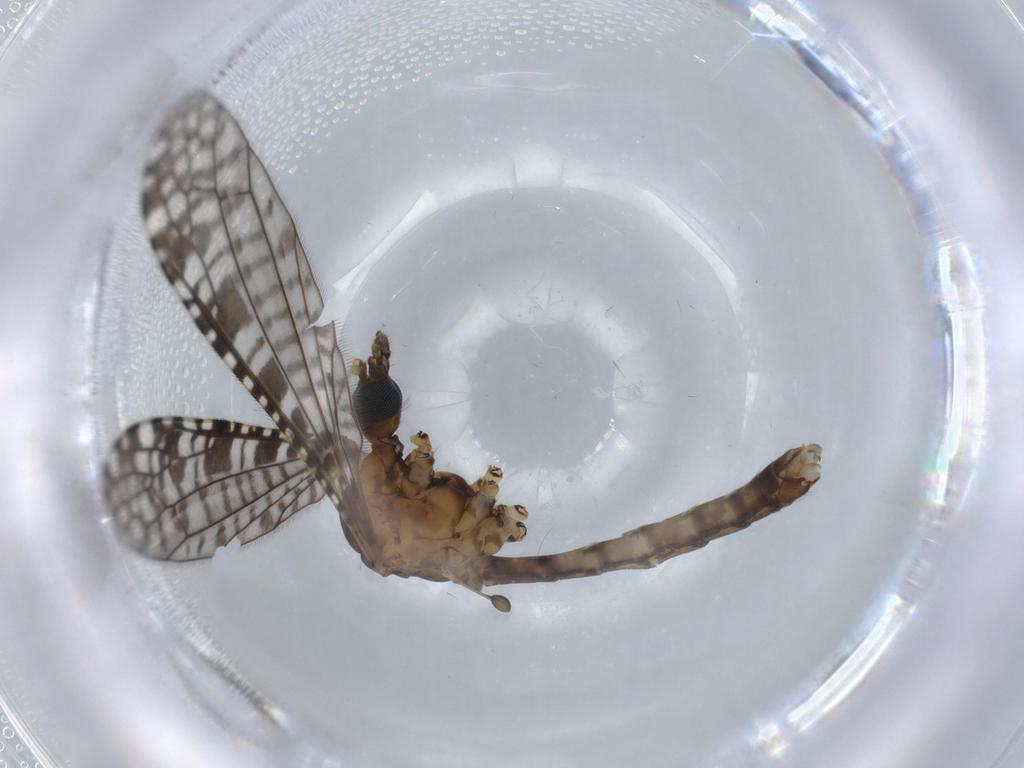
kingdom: Animalia
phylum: Arthropoda
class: Insecta
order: Diptera
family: Sciaridae
